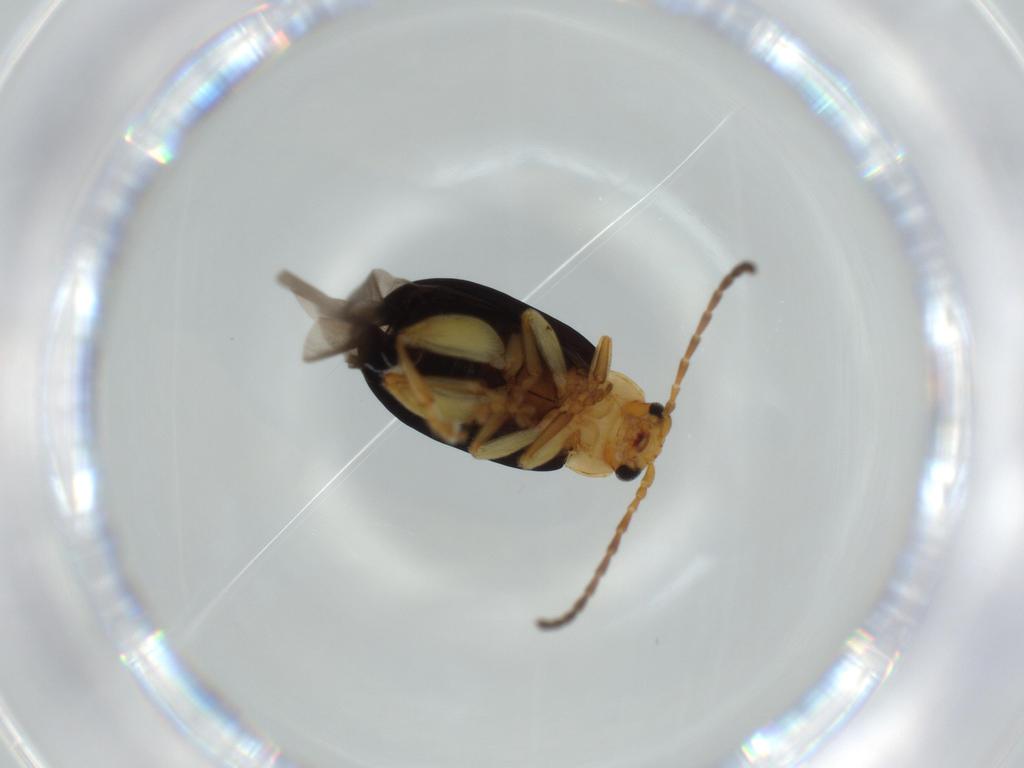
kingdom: Animalia
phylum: Arthropoda
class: Insecta
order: Coleoptera
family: Chrysomelidae
